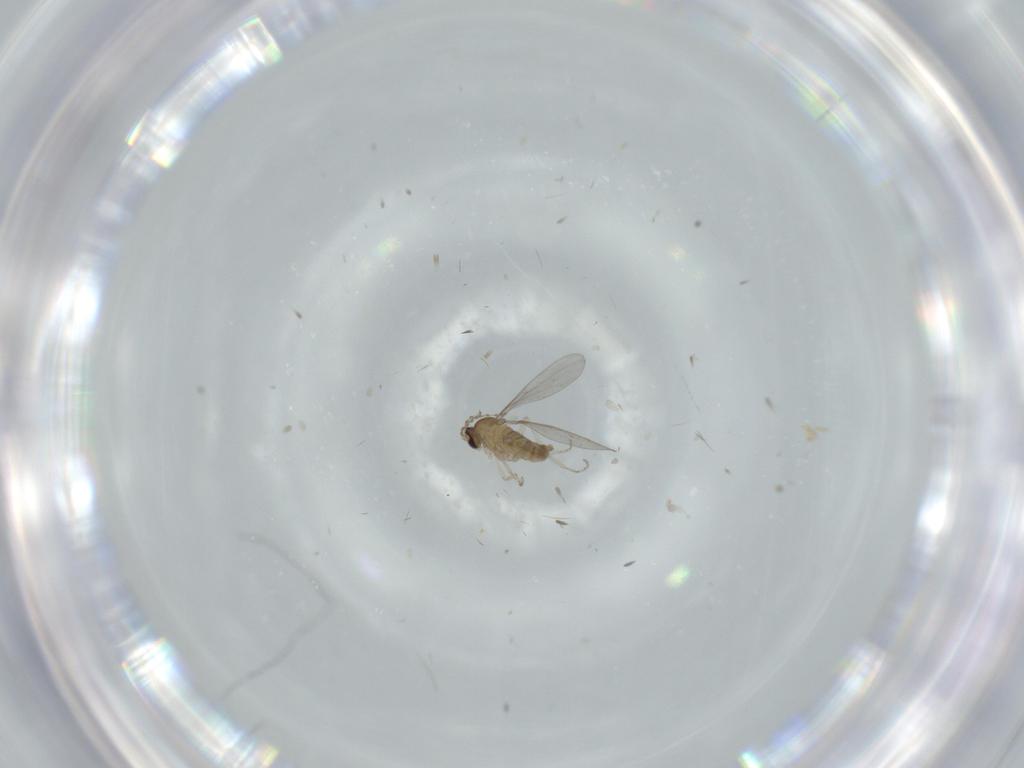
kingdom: Animalia
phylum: Arthropoda
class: Insecta
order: Diptera
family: Cecidomyiidae
